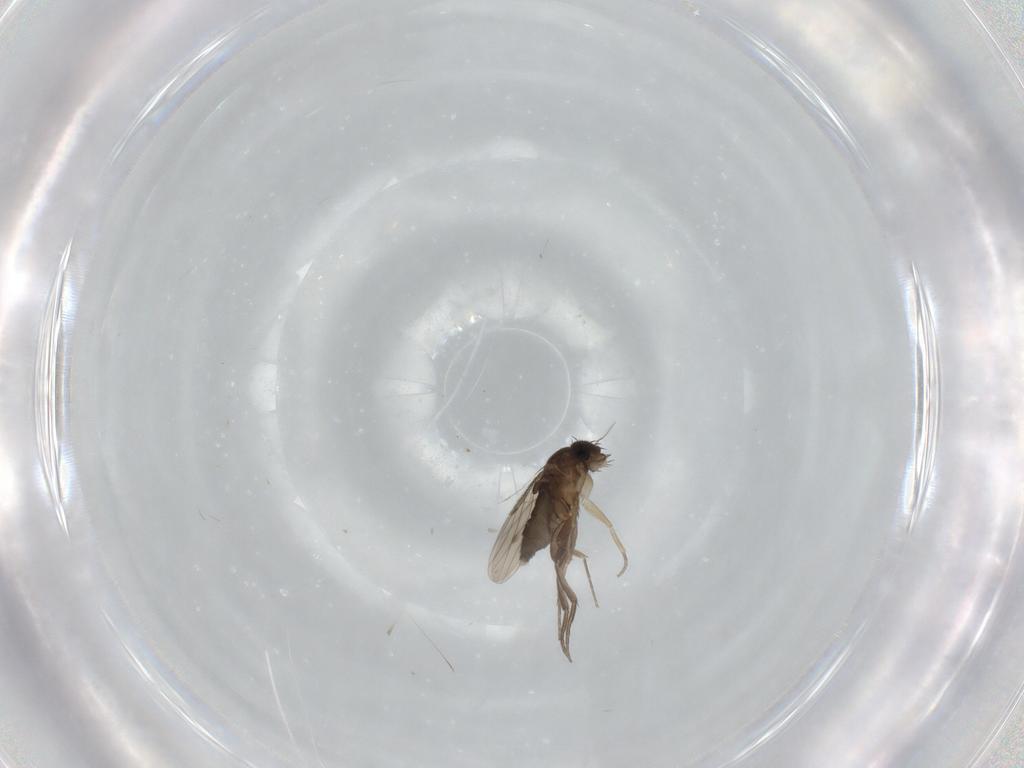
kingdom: Animalia
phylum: Arthropoda
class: Insecta
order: Diptera
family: Phoridae
